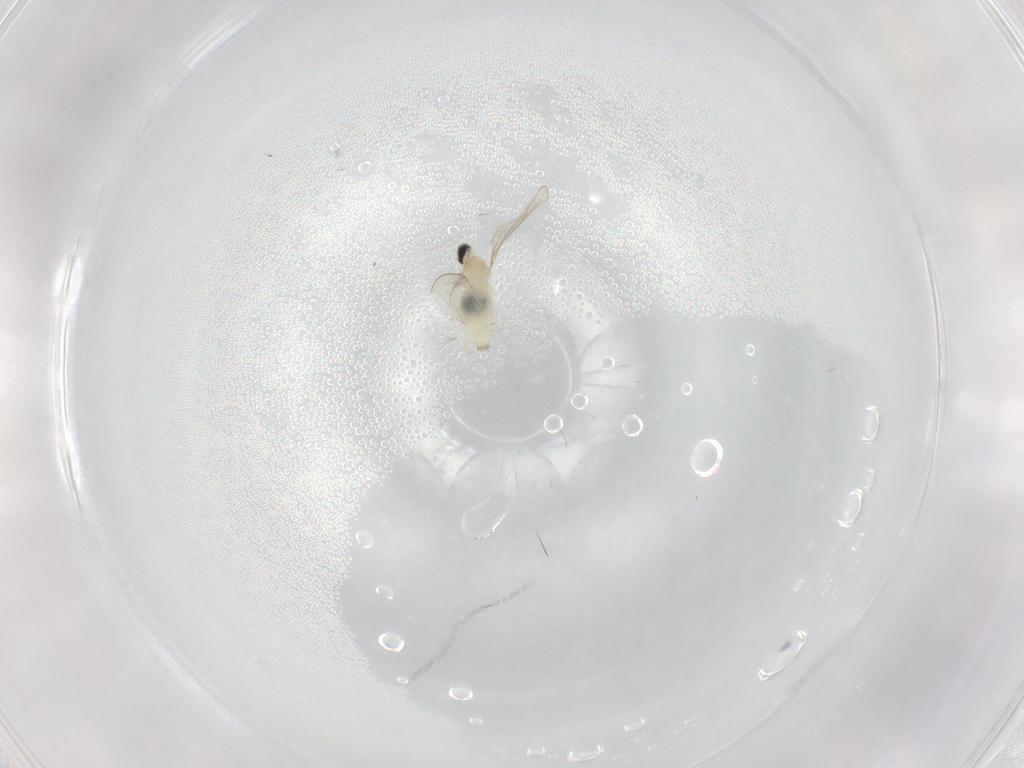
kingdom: Animalia
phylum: Arthropoda
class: Insecta
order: Diptera
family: Cecidomyiidae
